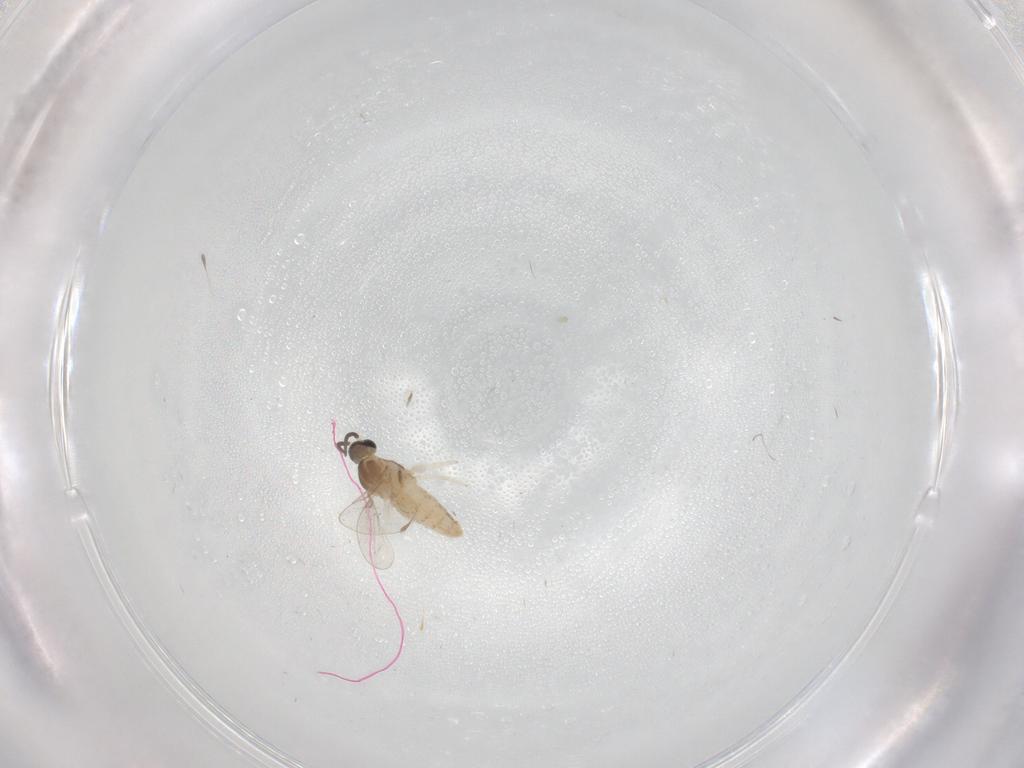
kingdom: Animalia
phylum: Arthropoda
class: Insecta
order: Diptera
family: Cecidomyiidae
